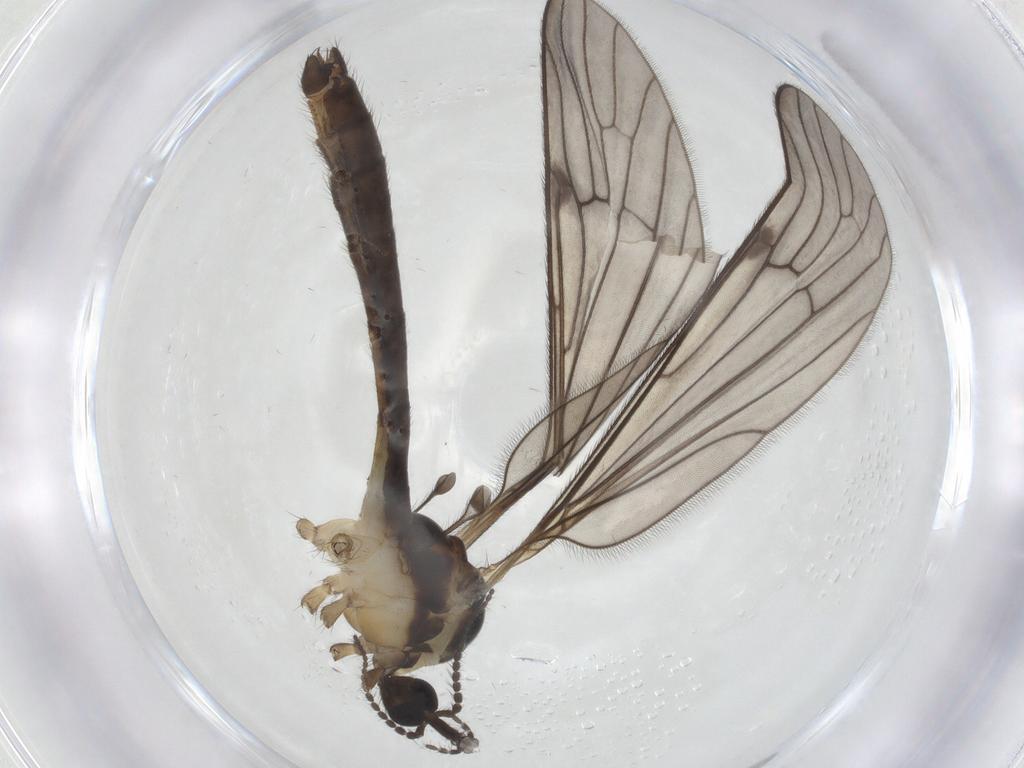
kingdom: Animalia
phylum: Arthropoda
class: Insecta
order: Diptera
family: Limoniidae
